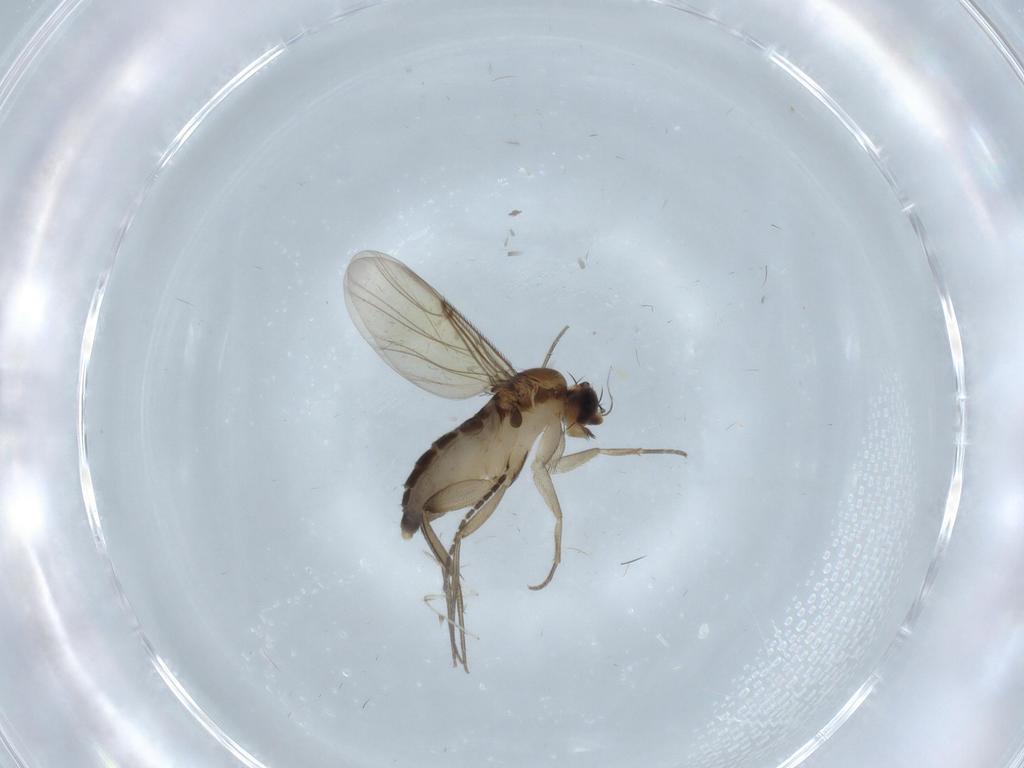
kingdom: Animalia
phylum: Arthropoda
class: Insecta
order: Diptera
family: Phoridae
